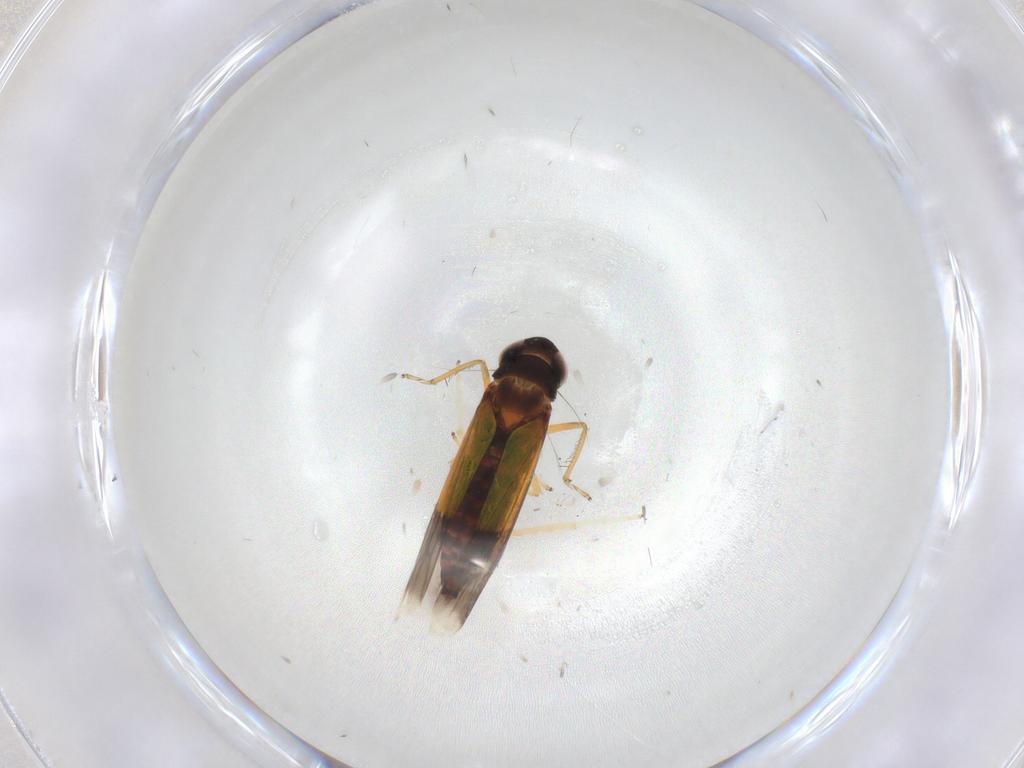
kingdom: Animalia
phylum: Arthropoda
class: Insecta
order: Hemiptera
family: Cicadellidae
